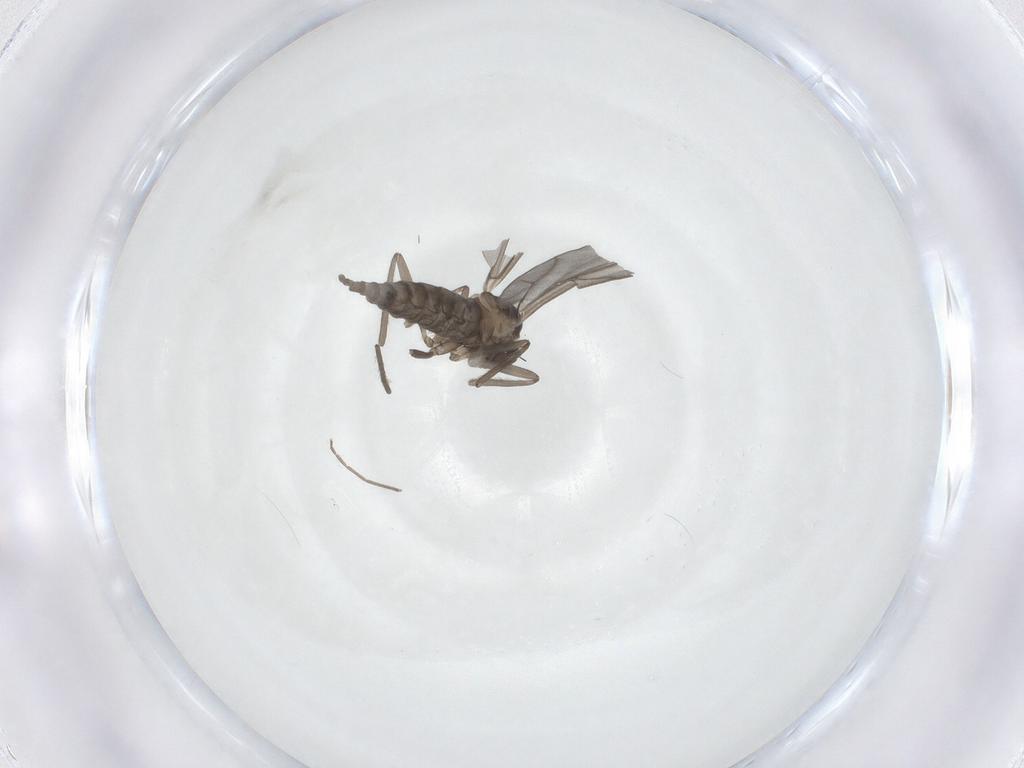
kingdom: Animalia
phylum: Arthropoda
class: Insecta
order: Diptera
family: Cecidomyiidae
